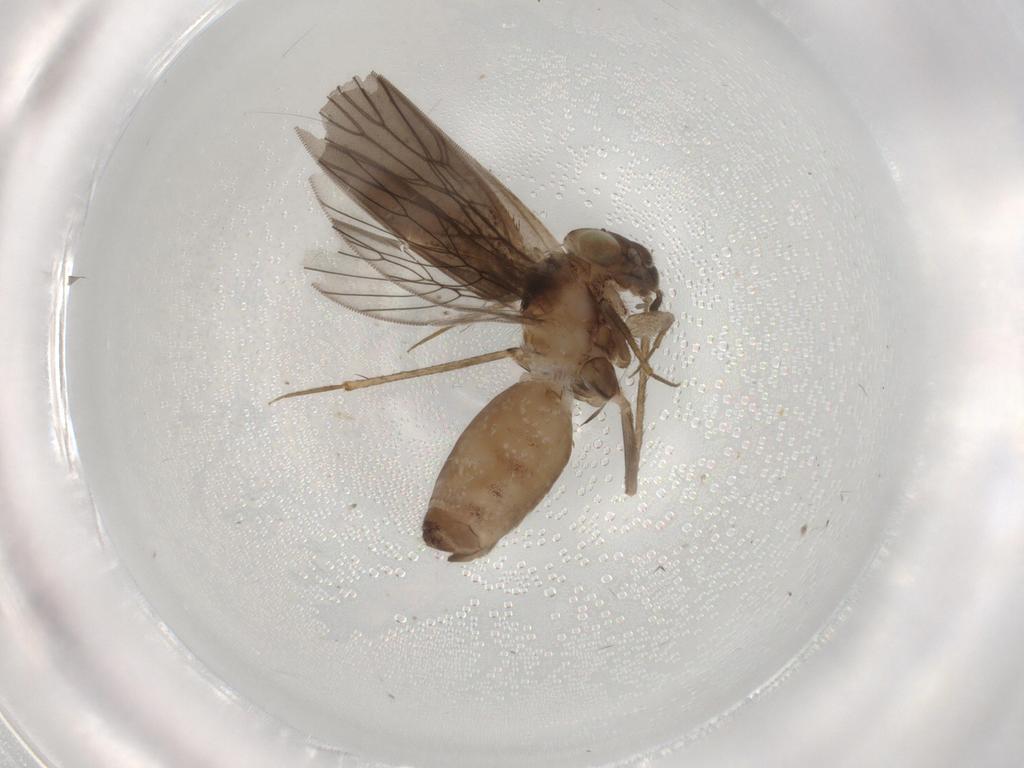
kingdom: Animalia
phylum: Arthropoda
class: Insecta
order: Psocodea
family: Lepidopsocidae
